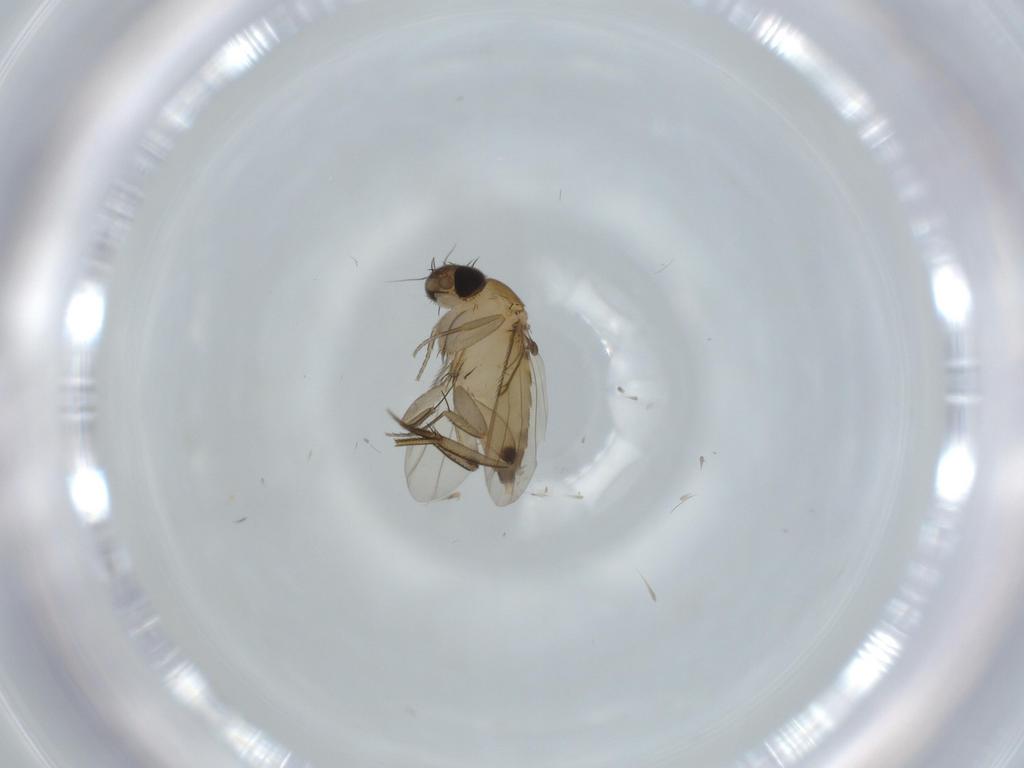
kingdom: Animalia
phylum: Arthropoda
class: Insecta
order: Diptera
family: Phoridae
